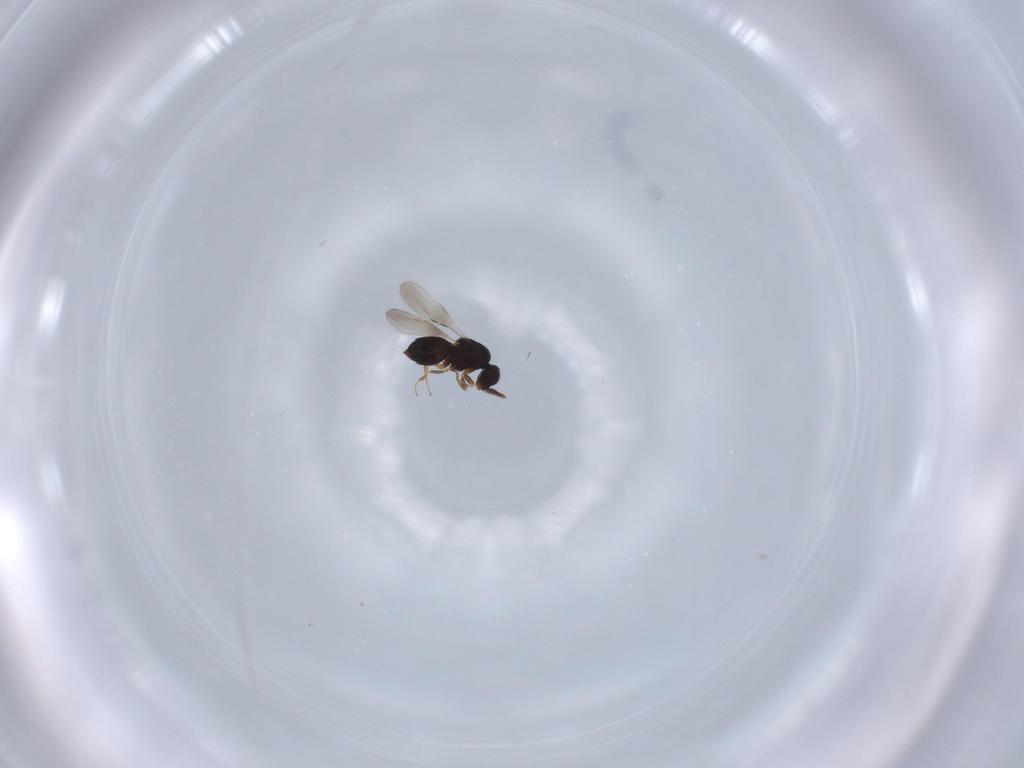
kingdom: Animalia
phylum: Arthropoda
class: Insecta
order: Hymenoptera
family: Ceraphronidae
